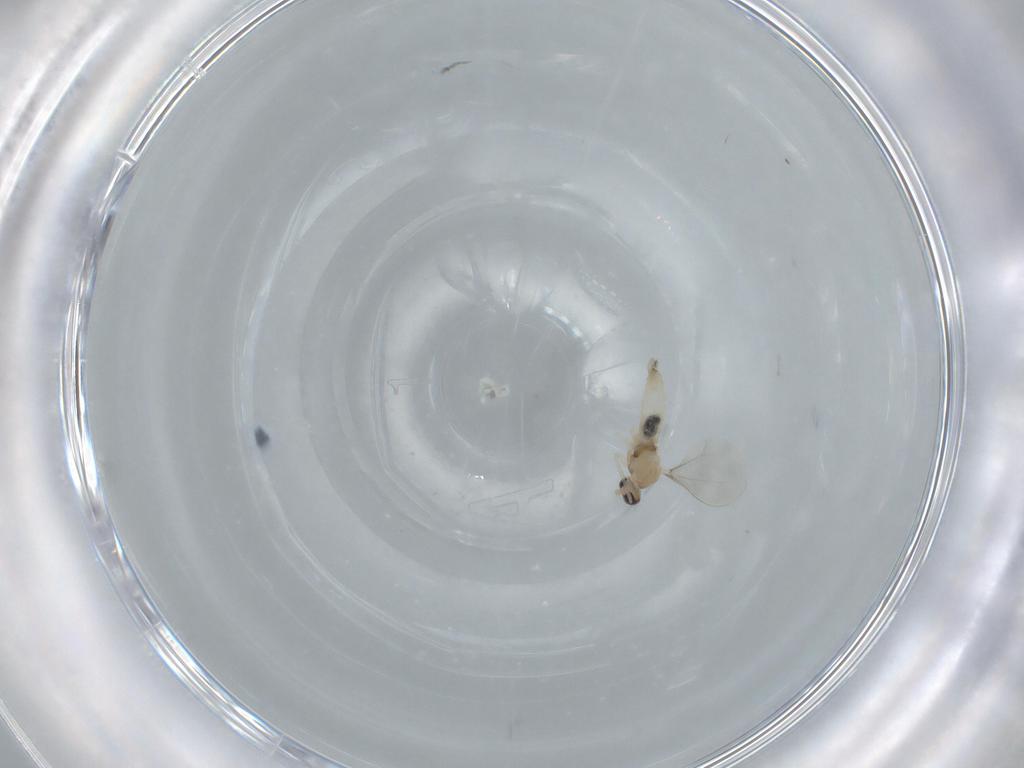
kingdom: Animalia
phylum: Arthropoda
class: Insecta
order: Diptera
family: Sciaridae
